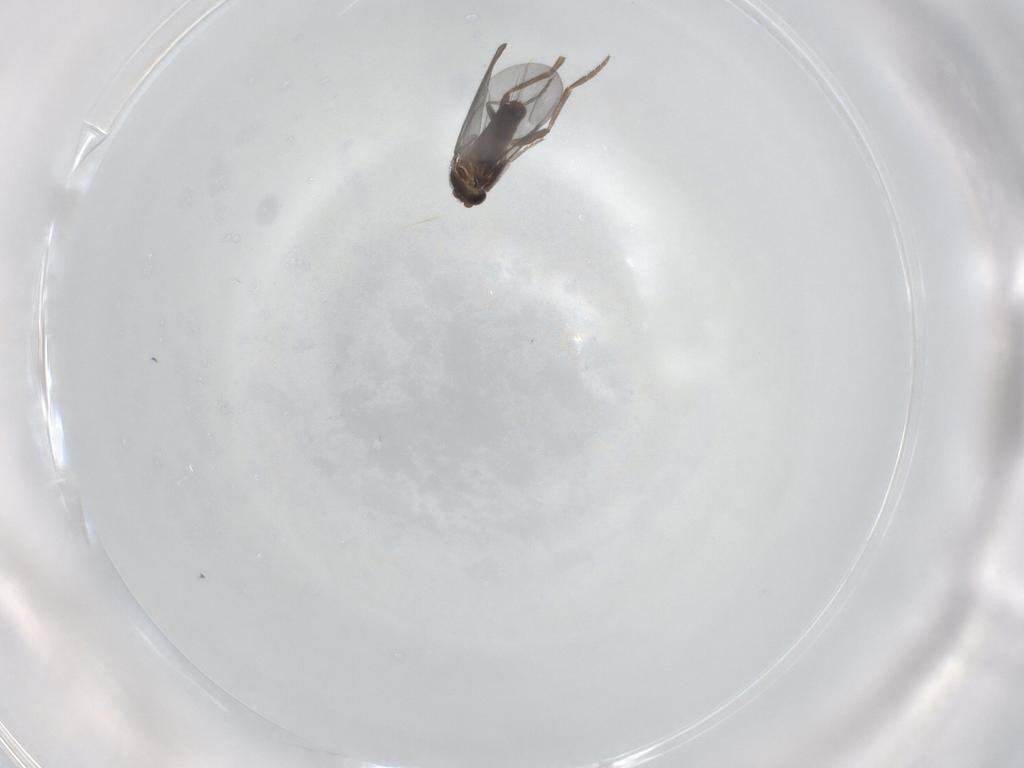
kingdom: Animalia
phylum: Arthropoda
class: Insecta
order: Diptera
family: Phoridae
